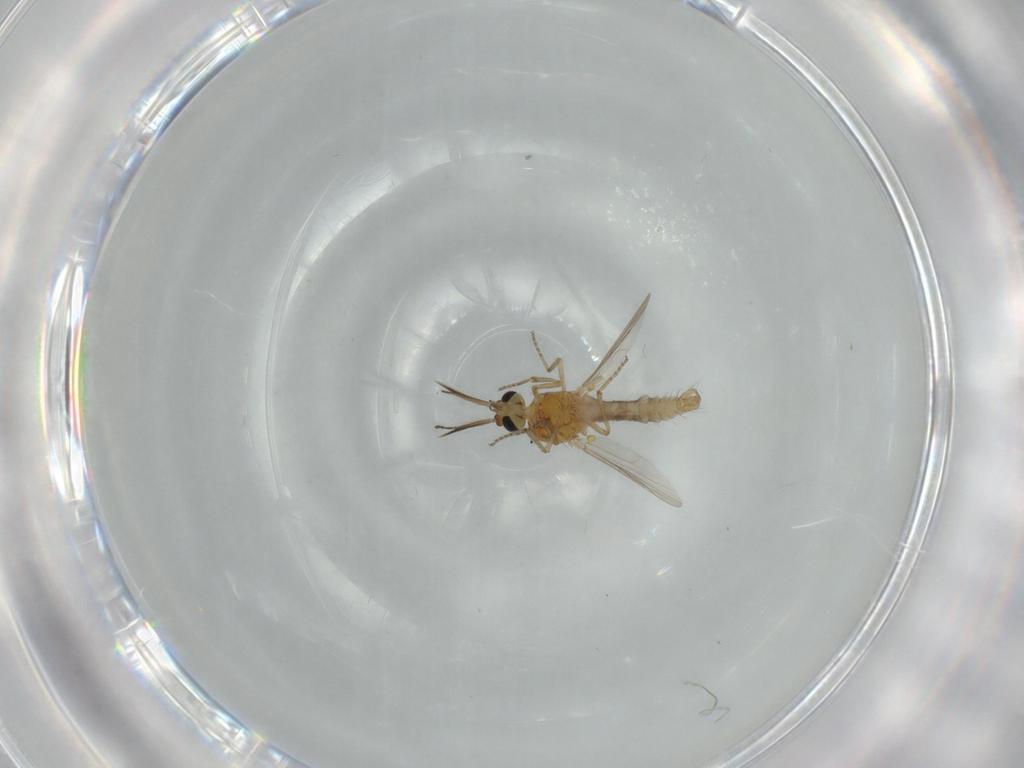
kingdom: Animalia
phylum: Arthropoda
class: Insecta
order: Diptera
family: Ceratopogonidae
